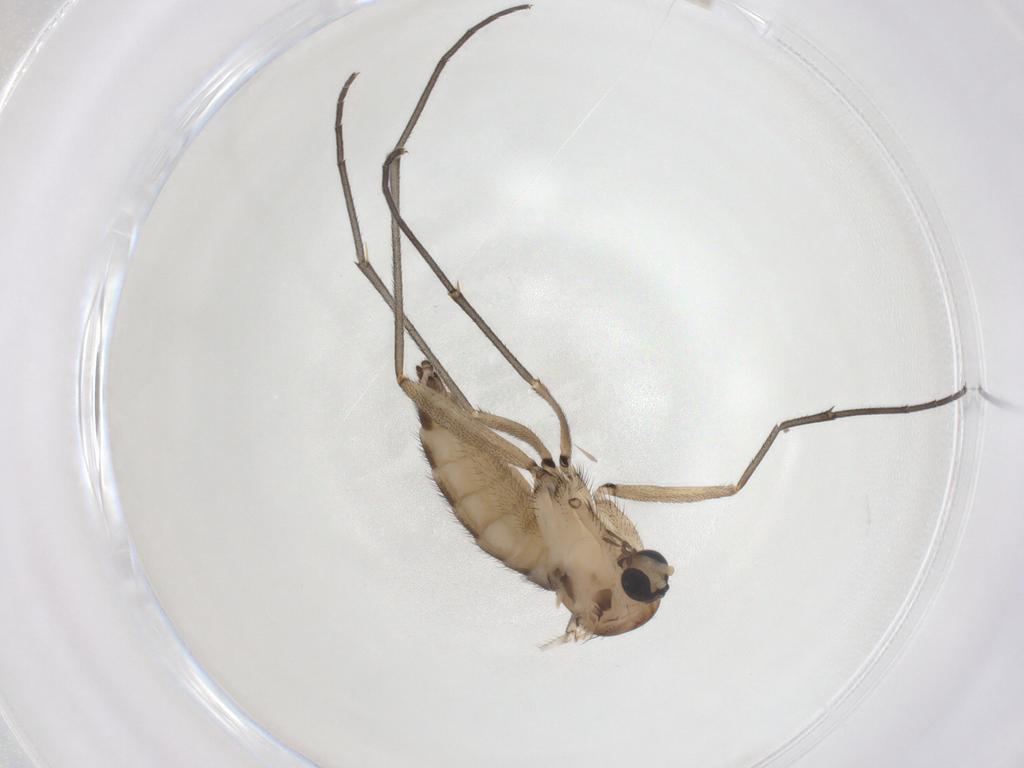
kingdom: Animalia
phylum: Arthropoda
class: Insecta
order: Diptera
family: Sciaridae
